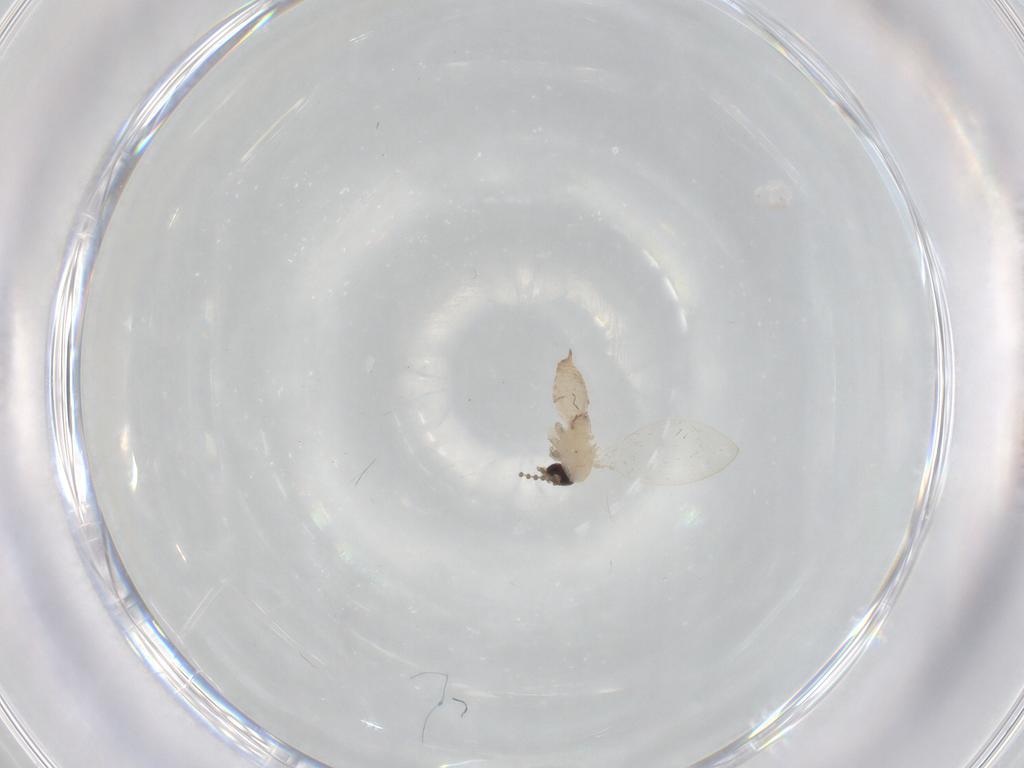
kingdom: Animalia
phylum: Arthropoda
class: Insecta
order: Diptera
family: Psychodidae
